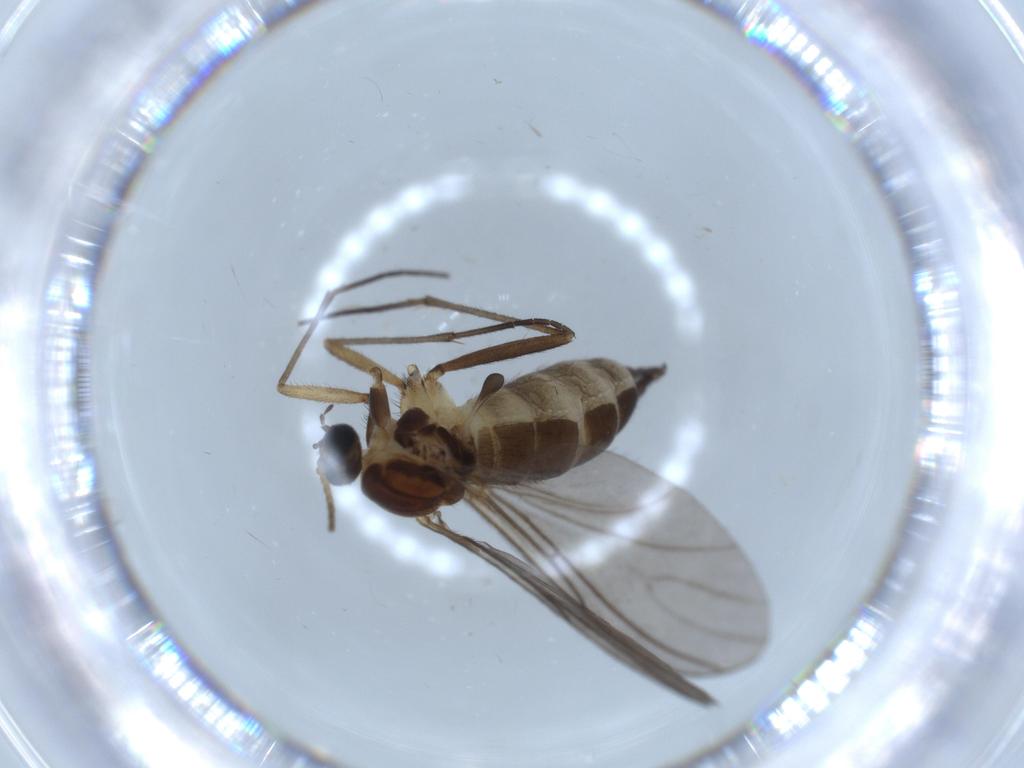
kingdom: Animalia
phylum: Arthropoda
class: Insecta
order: Diptera
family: Sciaridae
